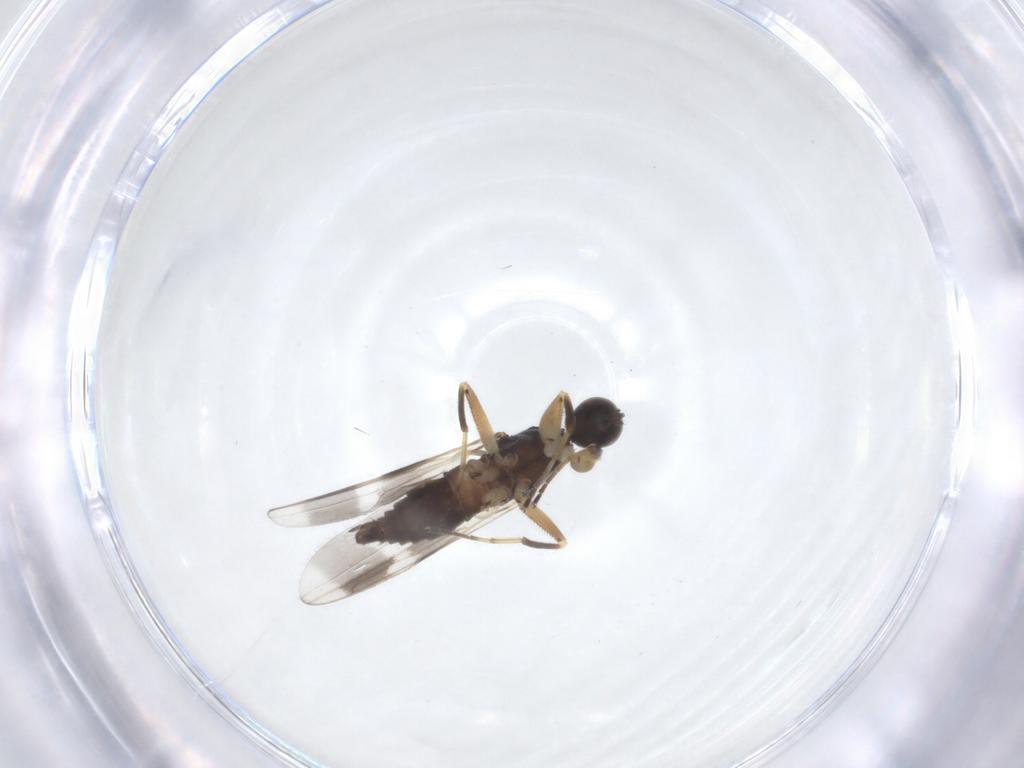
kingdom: Animalia
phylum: Arthropoda
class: Insecta
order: Diptera
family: Hybotidae
